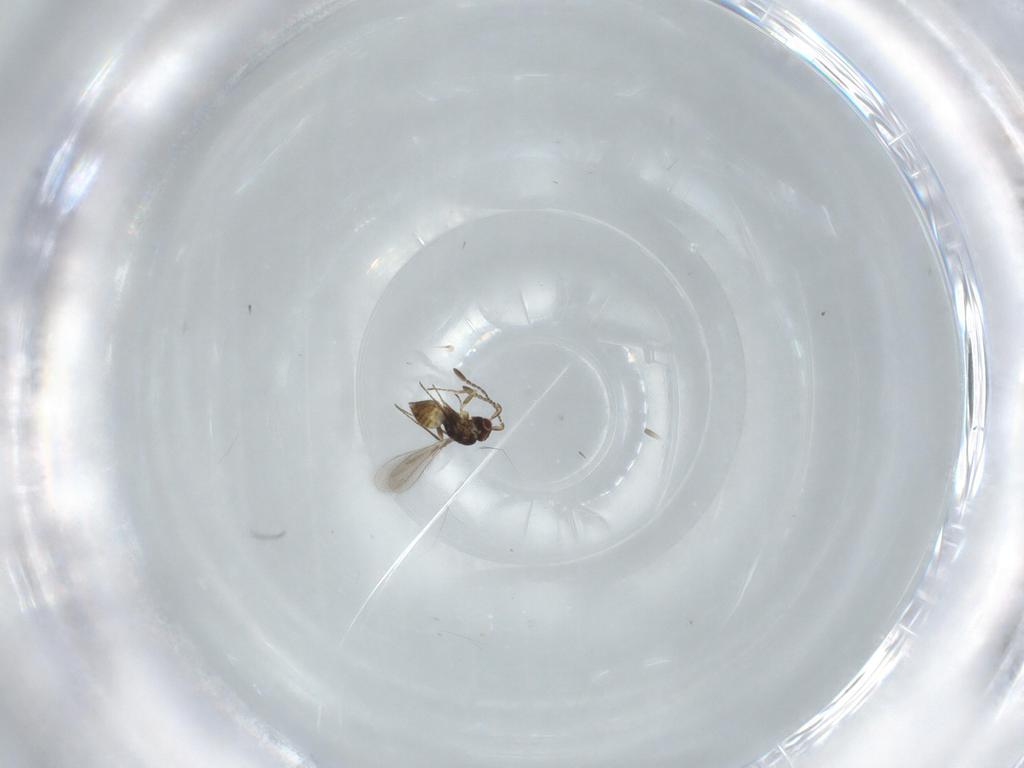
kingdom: Animalia
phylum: Arthropoda
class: Insecta
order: Hymenoptera
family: Mymaridae
